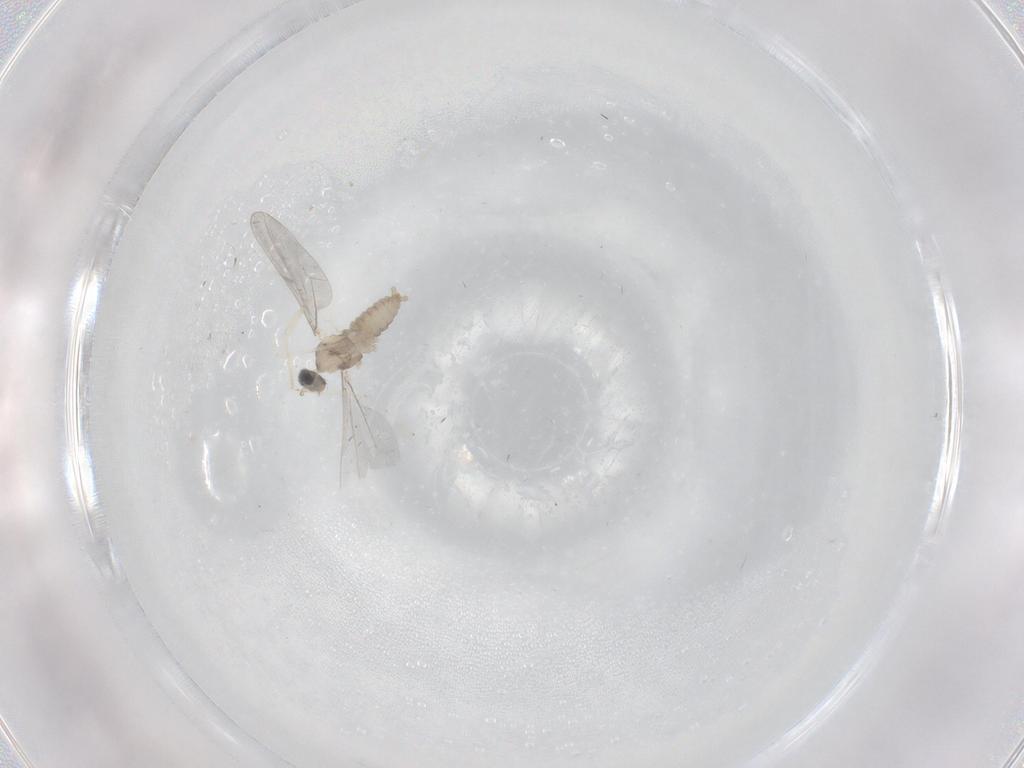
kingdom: Animalia
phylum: Arthropoda
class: Insecta
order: Diptera
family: Cecidomyiidae
